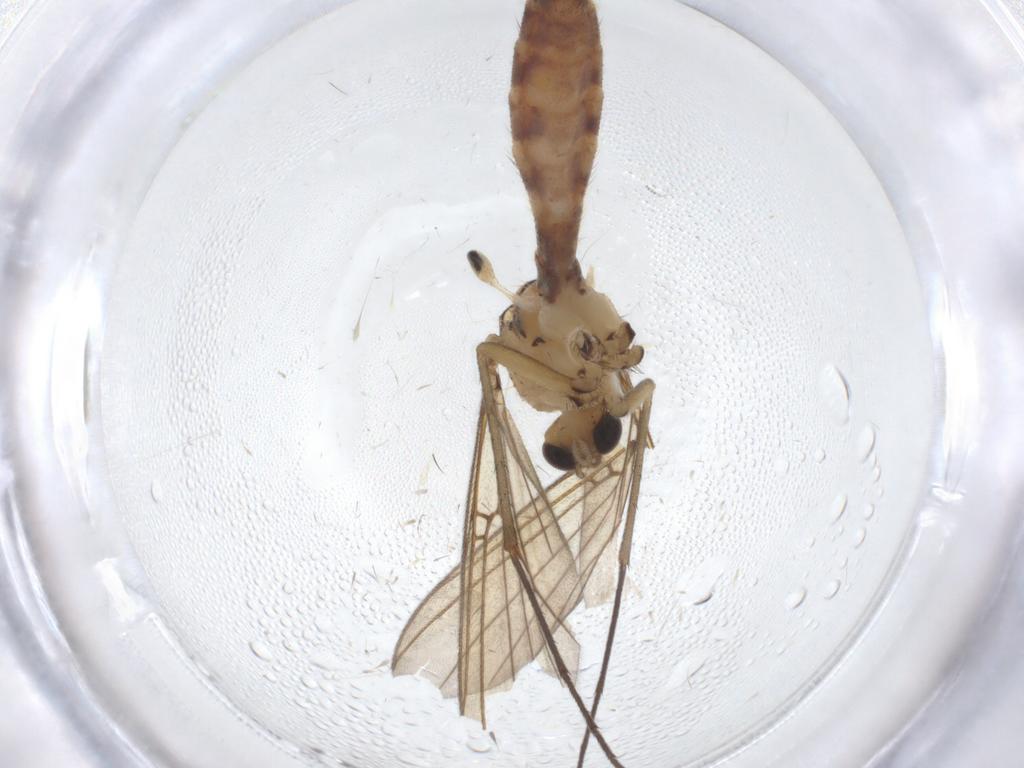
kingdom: Animalia
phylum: Arthropoda
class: Insecta
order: Diptera
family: Mycetophilidae
